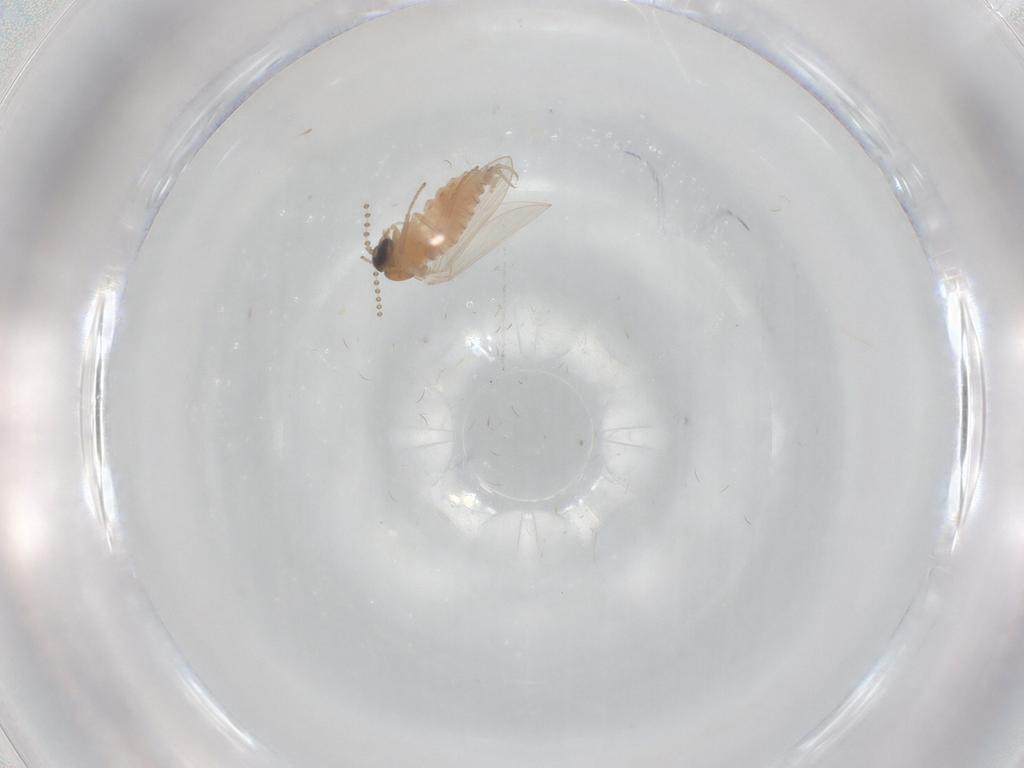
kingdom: Animalia
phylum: Arthropoda
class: Insecta
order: Diptera
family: Psychodidae
